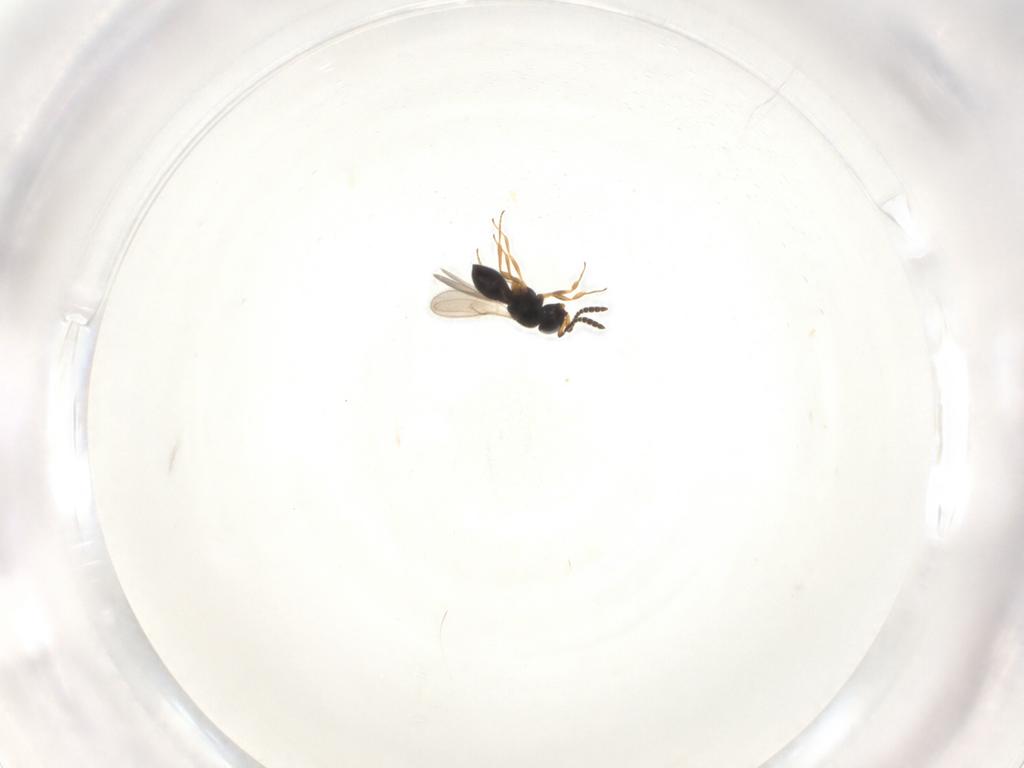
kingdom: Animalia
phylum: Arthropoda
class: Insecta
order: Hymenoptera
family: Scelionidae
